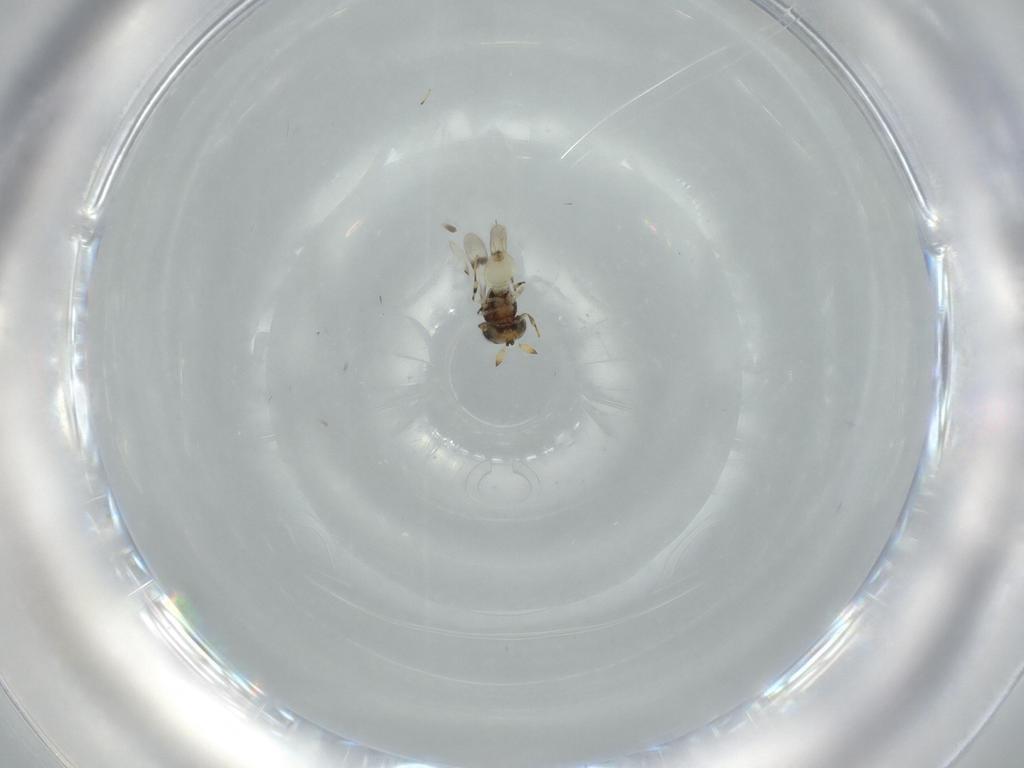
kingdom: Animalia
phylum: Arthropoda
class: Insecta
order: Hymenoptera
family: Scelionidae
